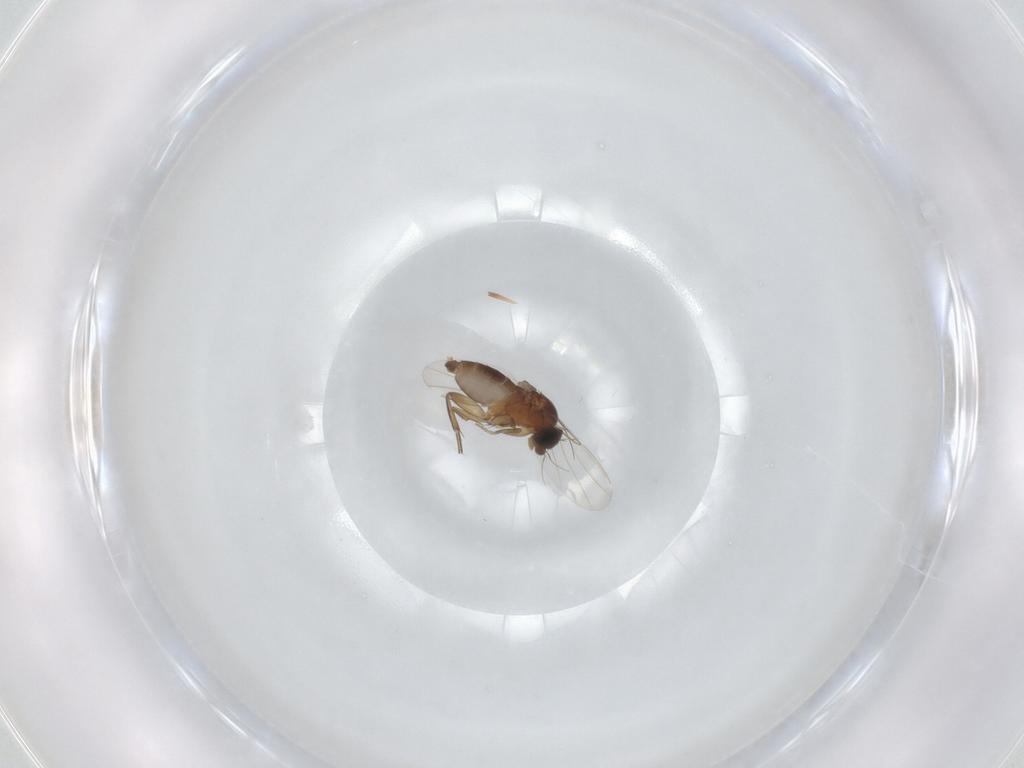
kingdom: Animalia
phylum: Arthropoda
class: Insecta
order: Diptera
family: Phoridae
